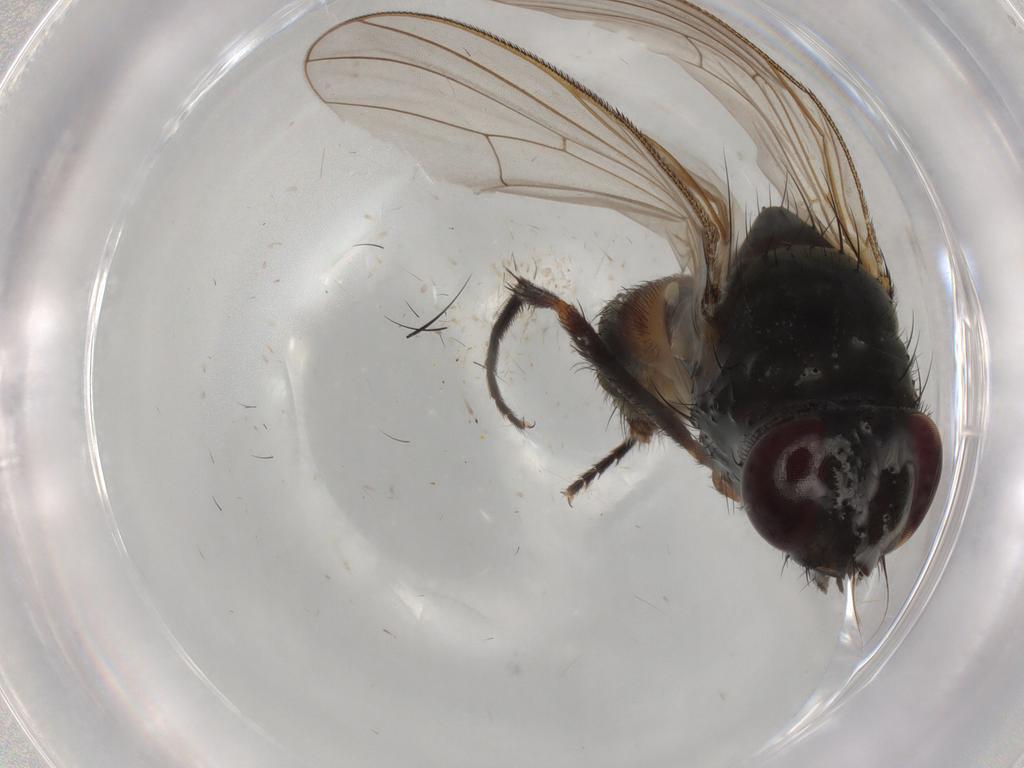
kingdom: Animalia
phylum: Arthropoda
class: Insecta
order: Diptera
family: Fannia
